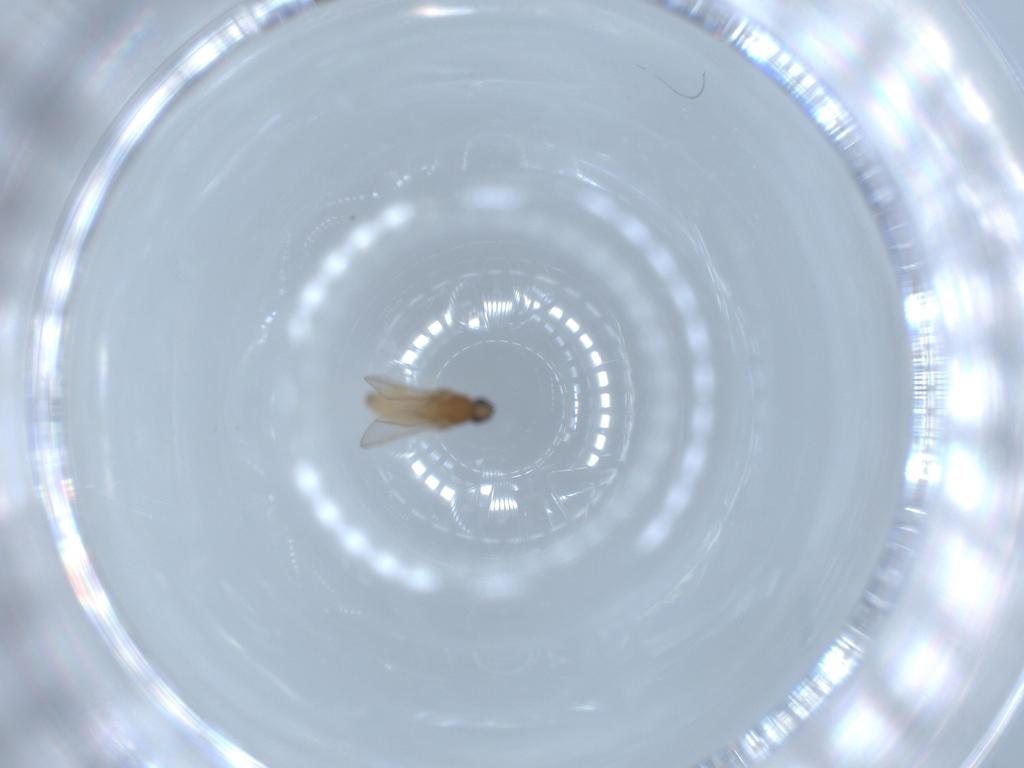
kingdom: Animalia
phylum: Arthropoda
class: Insecta
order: Diptera
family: Cecidomyiidae
